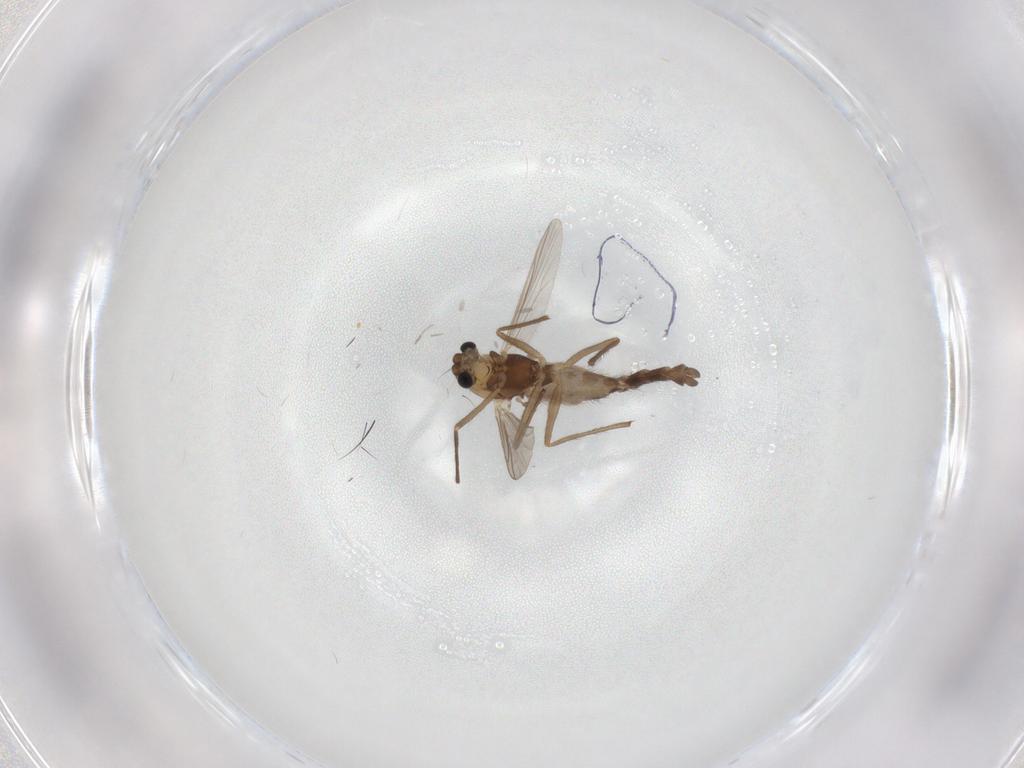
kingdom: Animalia
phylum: Arthropoda
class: Insecta
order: Diptera
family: Chironomidae
